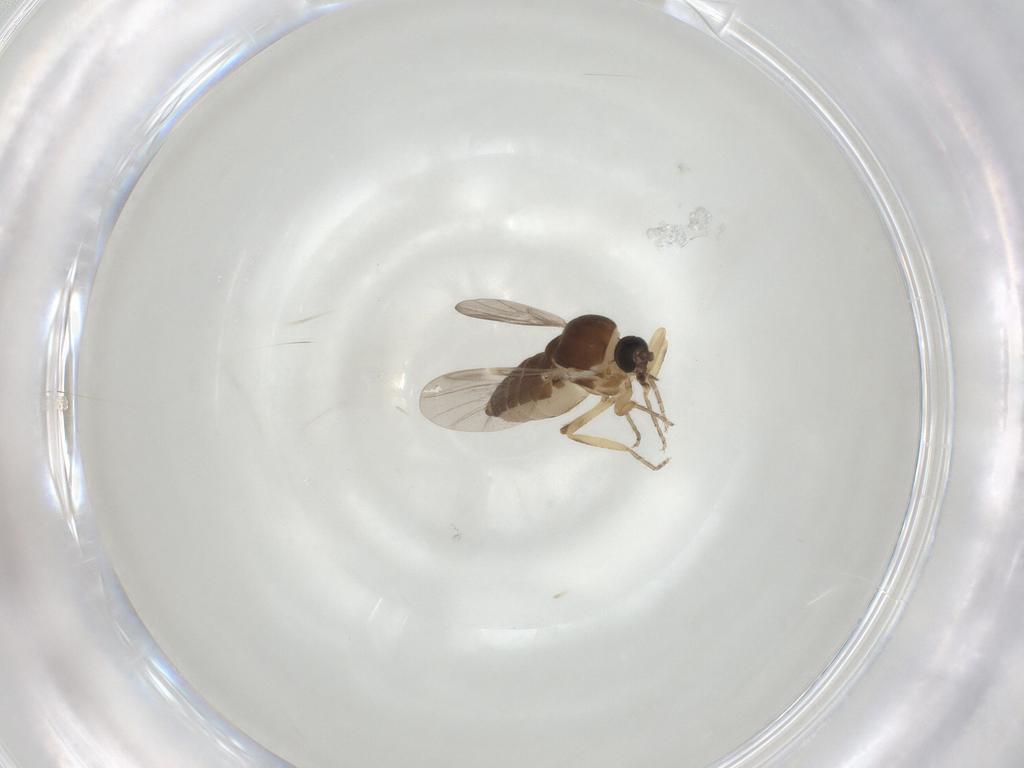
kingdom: Animalia
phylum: Arthropoda
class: Insecta
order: Diptera
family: Ceratopogonidae
